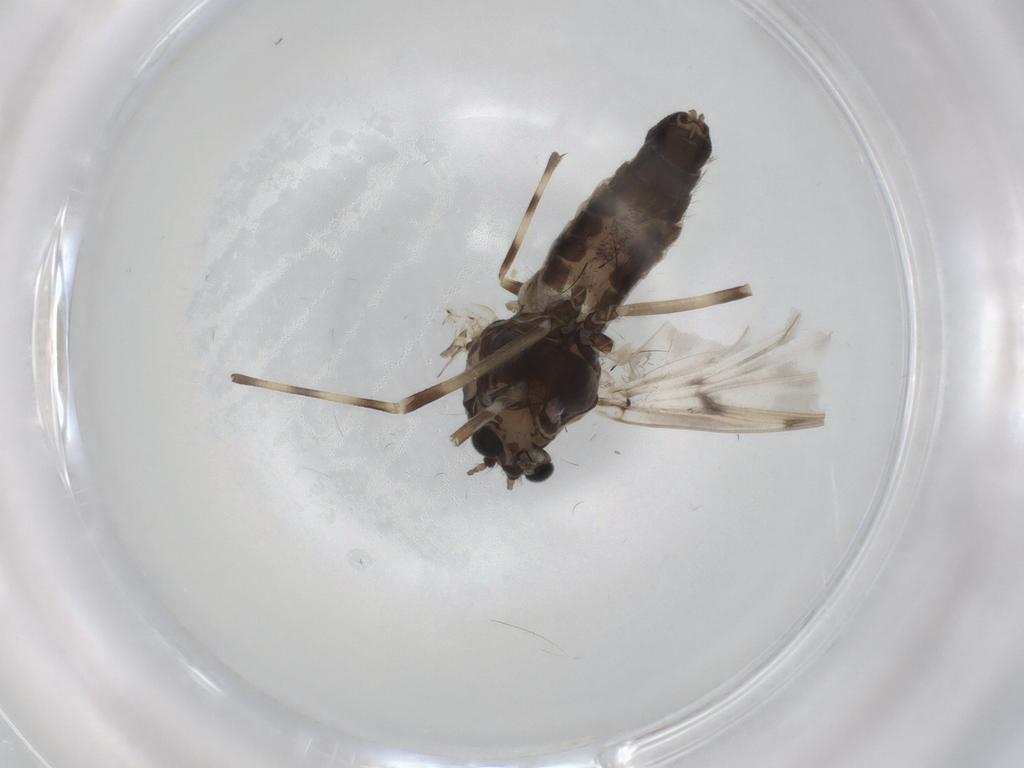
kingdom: Animalia
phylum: Arthropoda
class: Insecta
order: Diptera
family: Chironomidae
